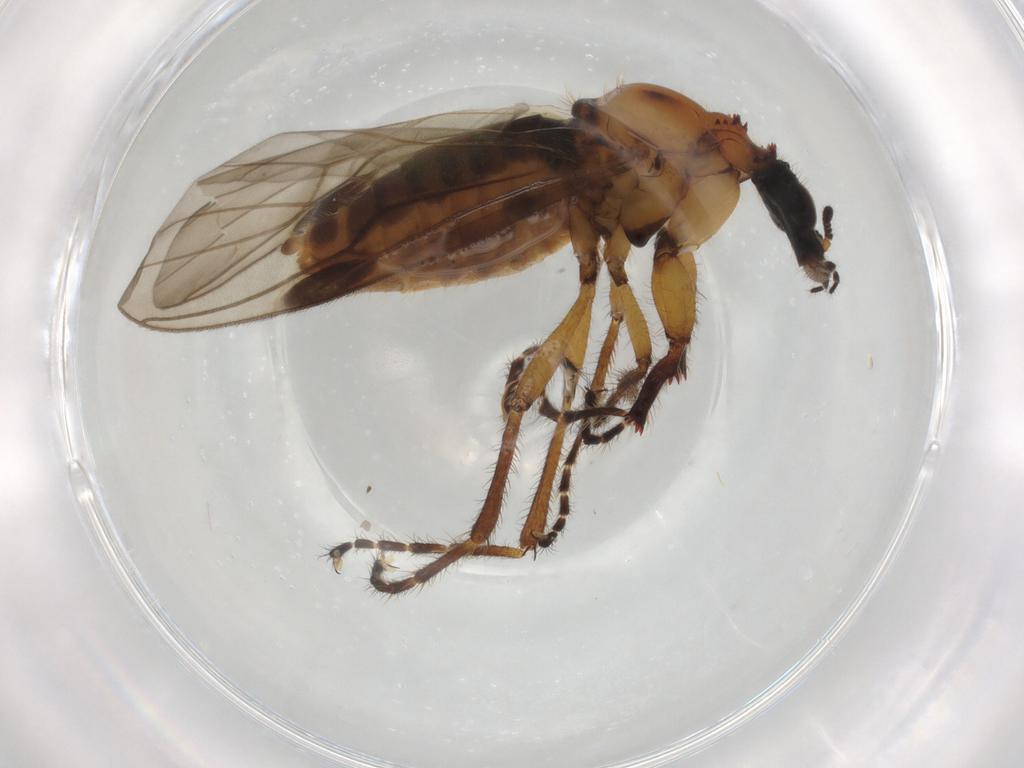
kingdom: Animalia
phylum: Arthropoda
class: Insecta
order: Diptera
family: Bibionidae
